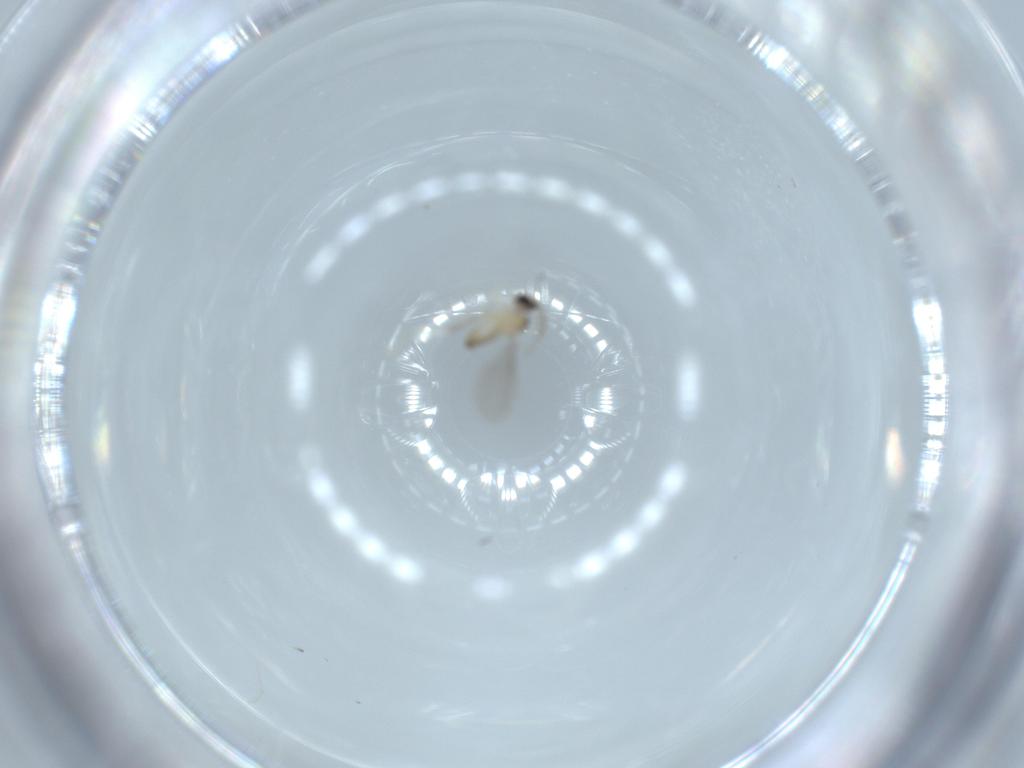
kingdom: Animalia
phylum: Arthropoda
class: Insecta
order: Diptera
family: Cecidomyiidae
